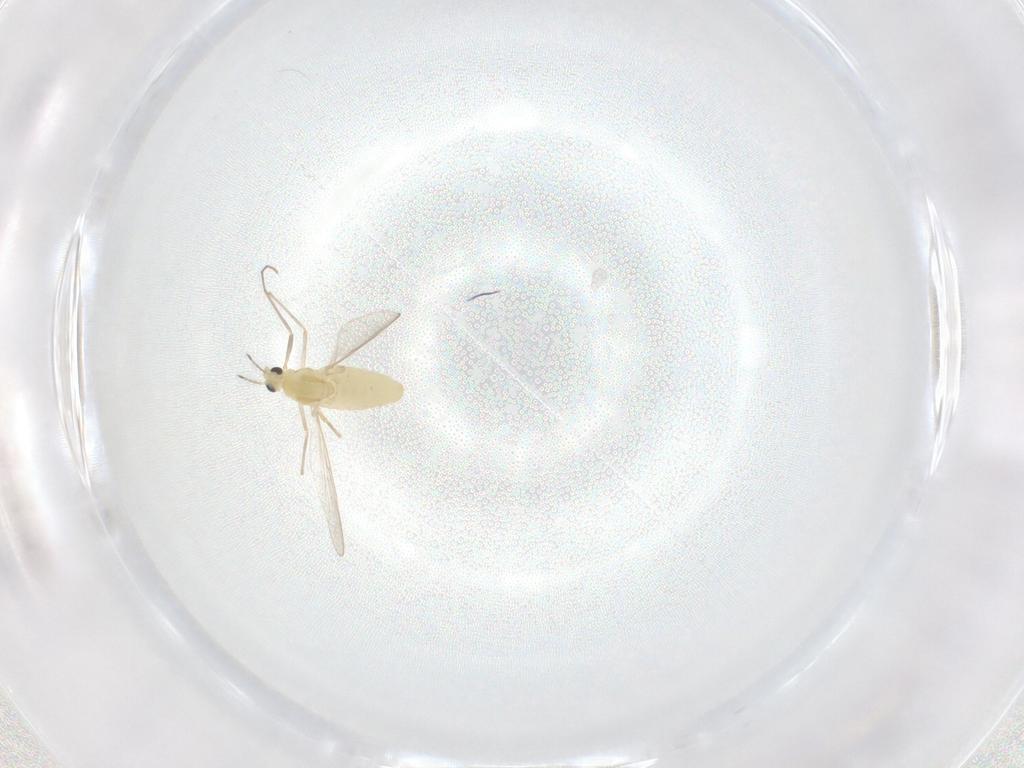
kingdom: Animalia
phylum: Arthropoda
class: Insecta
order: Diptera
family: Chironomidae
